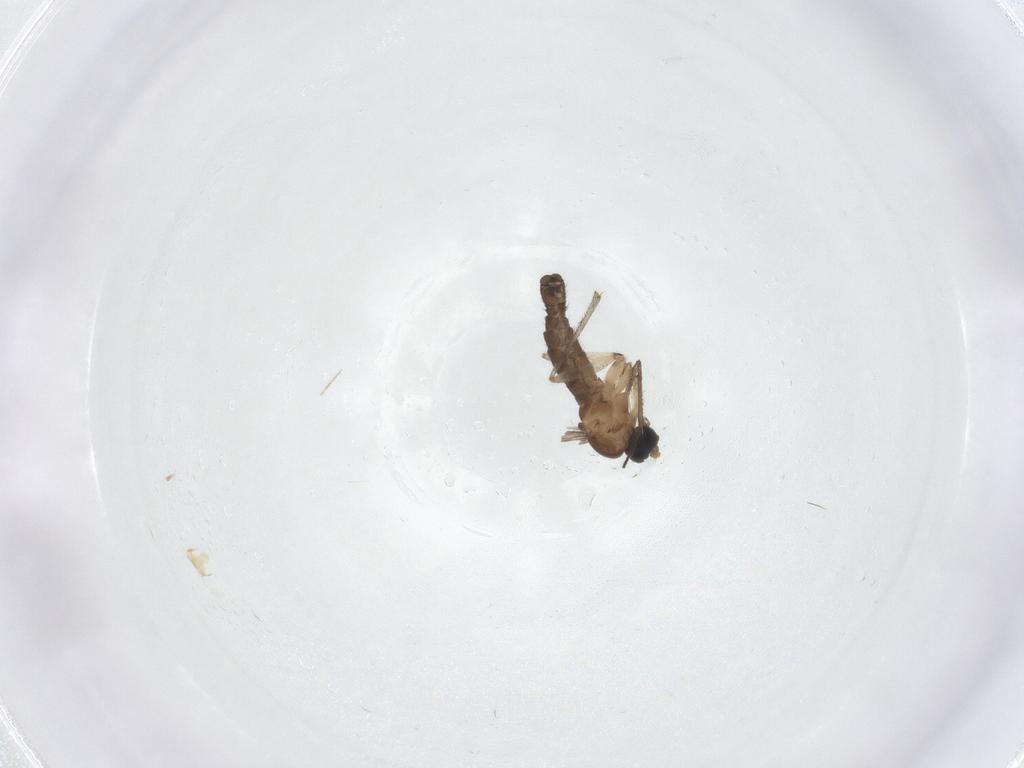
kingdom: Animalia
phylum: Arthropoda
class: Insecta
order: Diptera
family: Sciaridae
